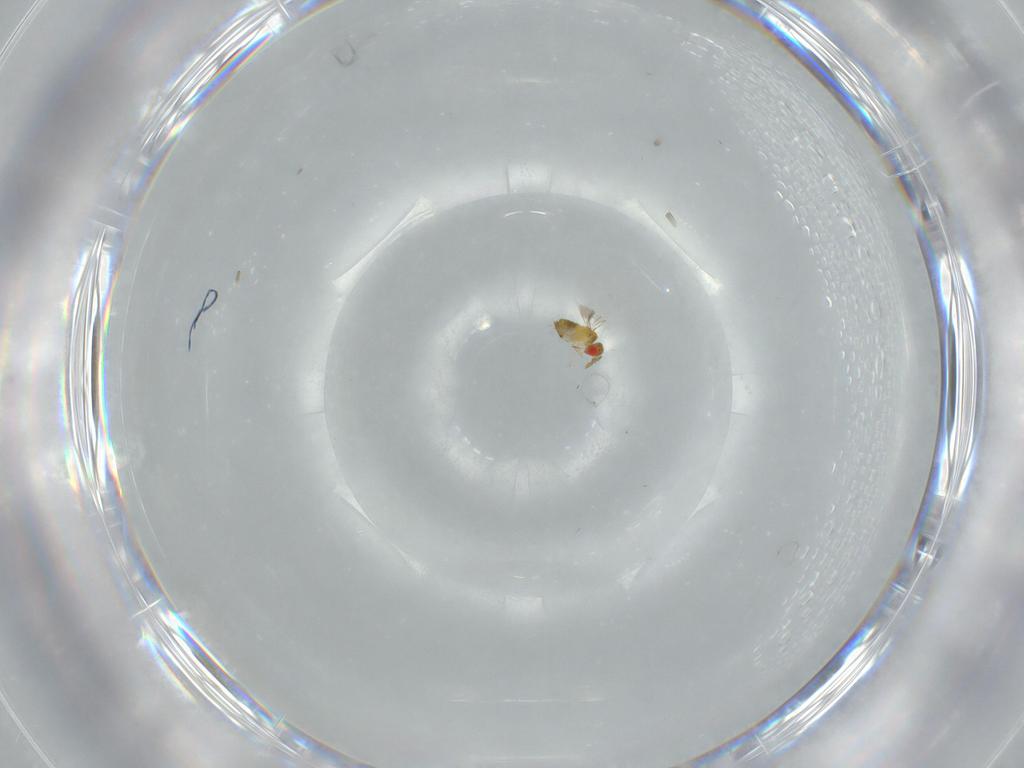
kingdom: Animalia
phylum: Arthropoda
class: Insecta
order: Hymenoptera
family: Trichogrammatidae
